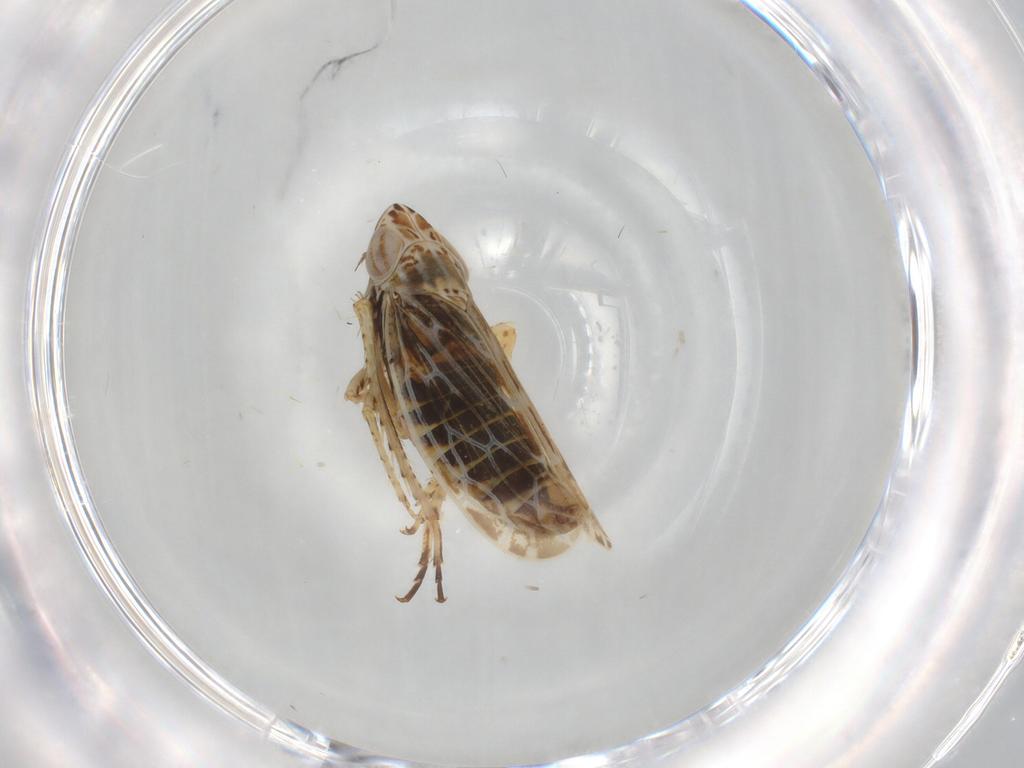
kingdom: Animalia
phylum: Arthropoda
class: Insecta
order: Hemiptera
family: Cicadellidae
